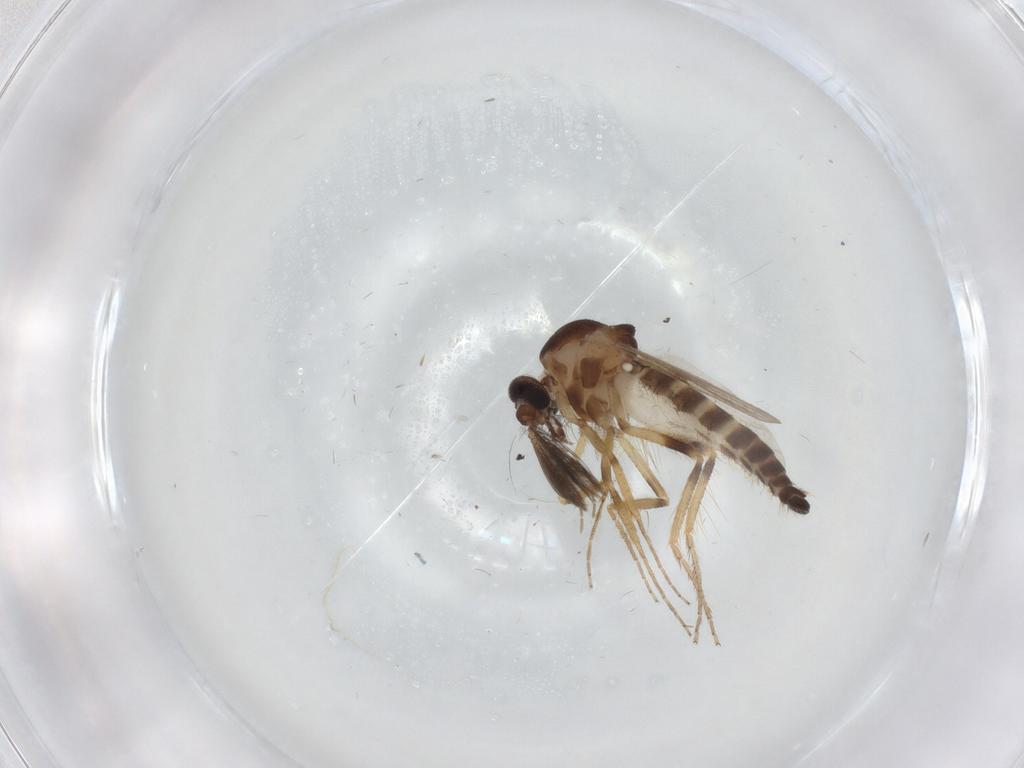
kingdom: Animalia
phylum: Arthropoda
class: Insecta
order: Diptera
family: Ceratopogonidae
